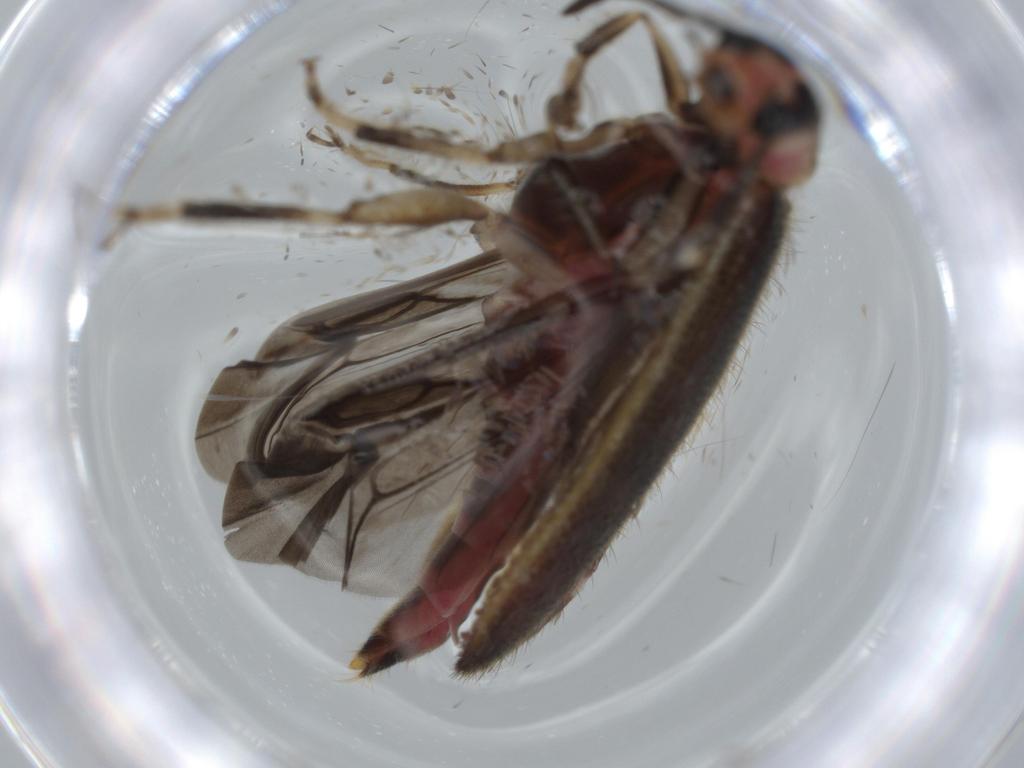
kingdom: Animalia
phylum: Arthropoda
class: Insecta
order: Coleoptera
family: Cleridae
